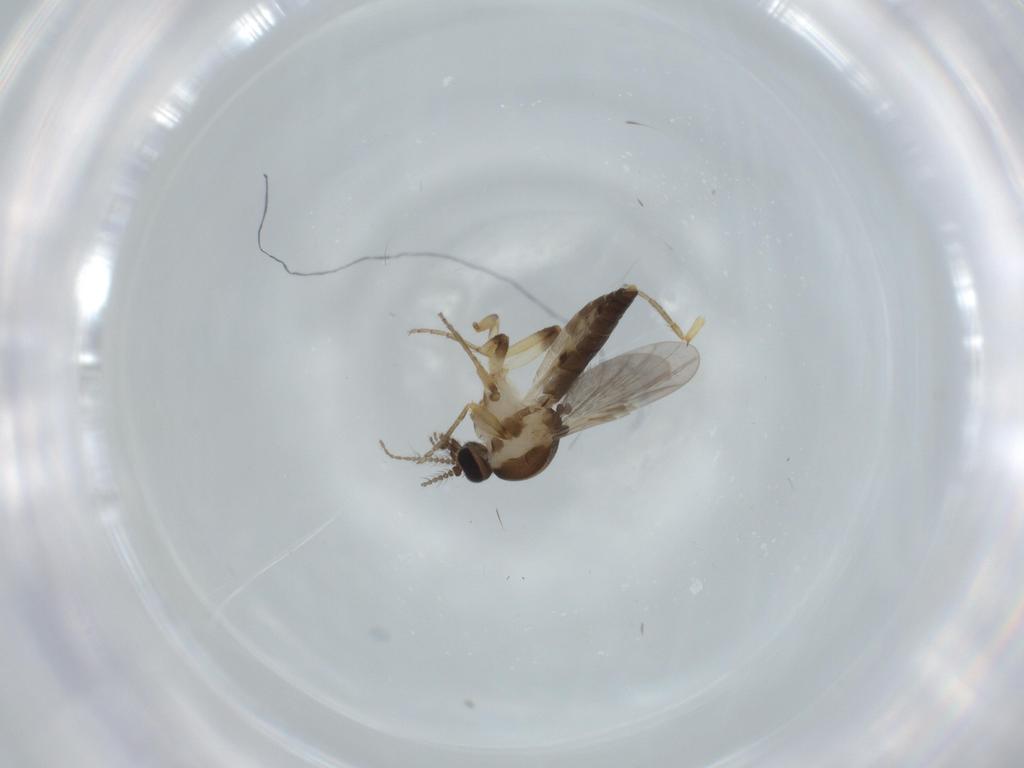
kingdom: Animalia
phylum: Arthropoda
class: Insecta
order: Diptera
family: Ceratopogonidae
